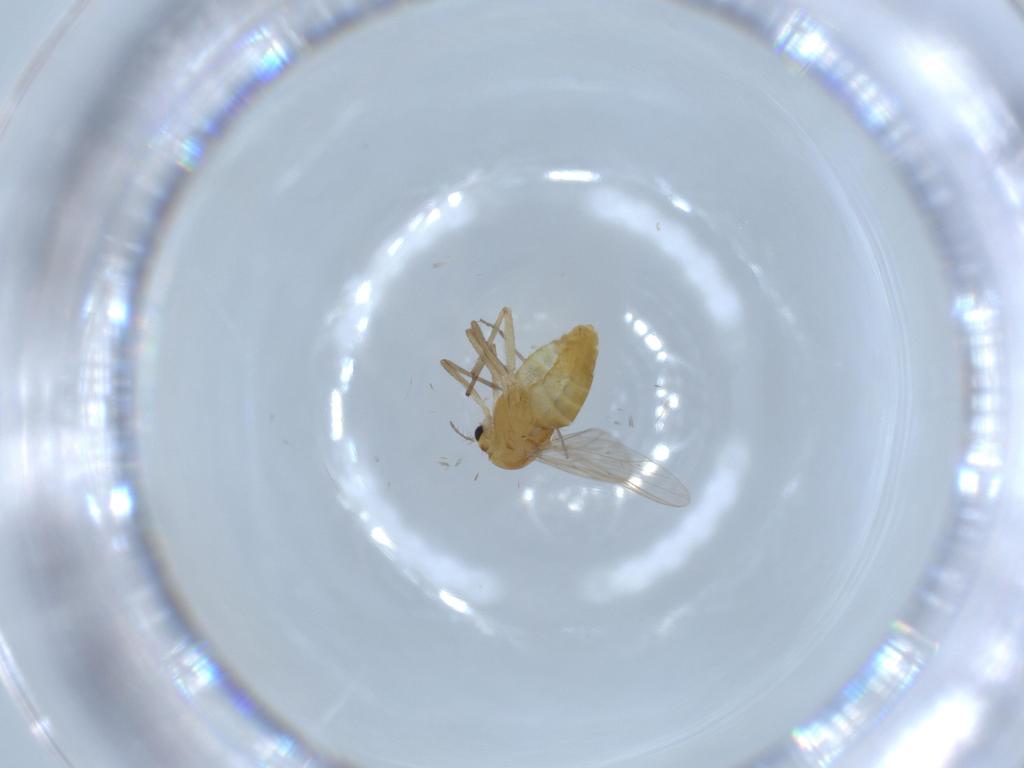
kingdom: Animalia
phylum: Arthropoda
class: Insecta
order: Diptera
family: Chironomidae
